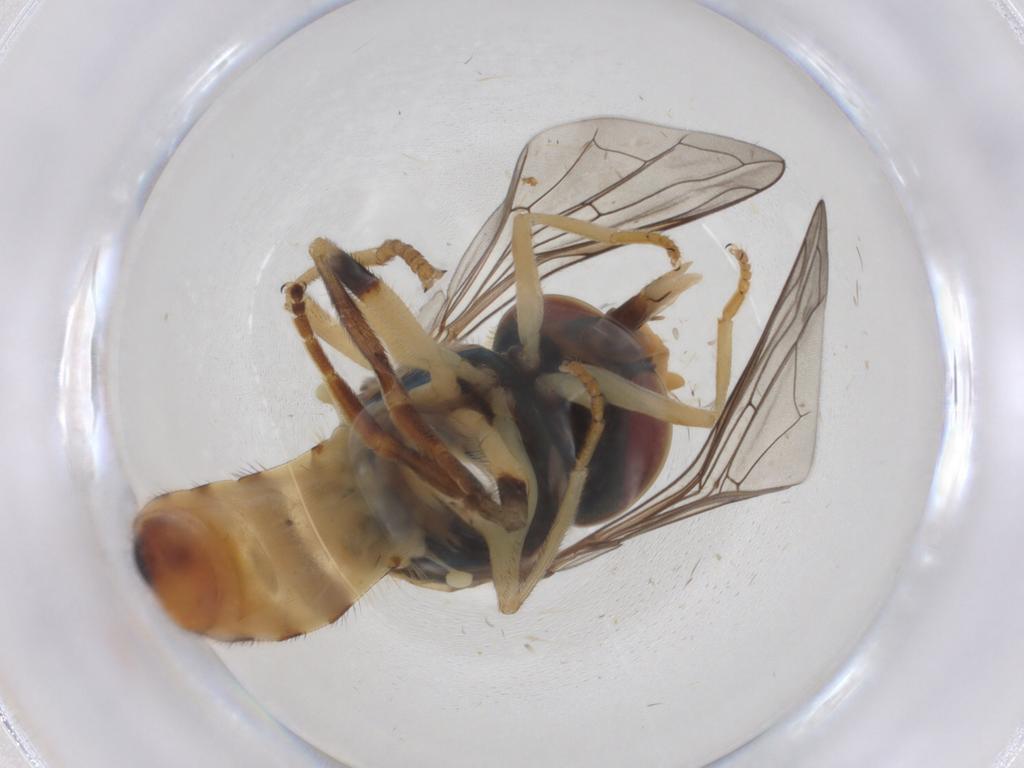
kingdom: Animalia
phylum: Arthropoda
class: Insecta
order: Diptera
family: Syrphidae
